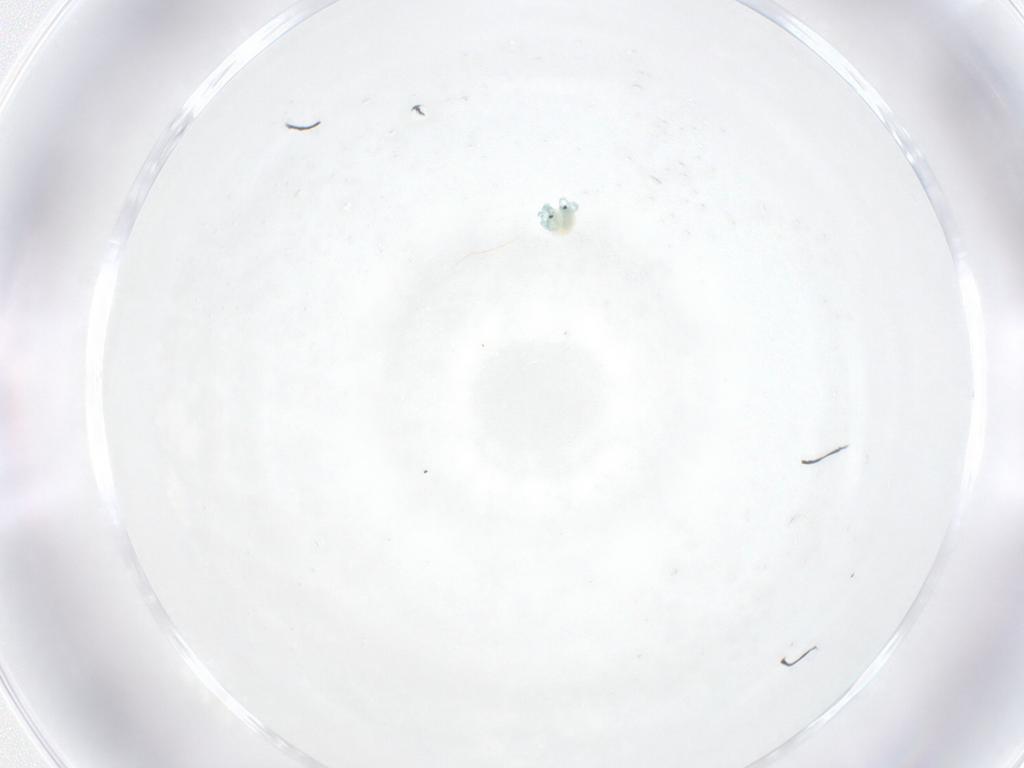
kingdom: Animalia
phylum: Arthropoda
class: Arachnida
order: Trombidiformes
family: Arrenuridae
